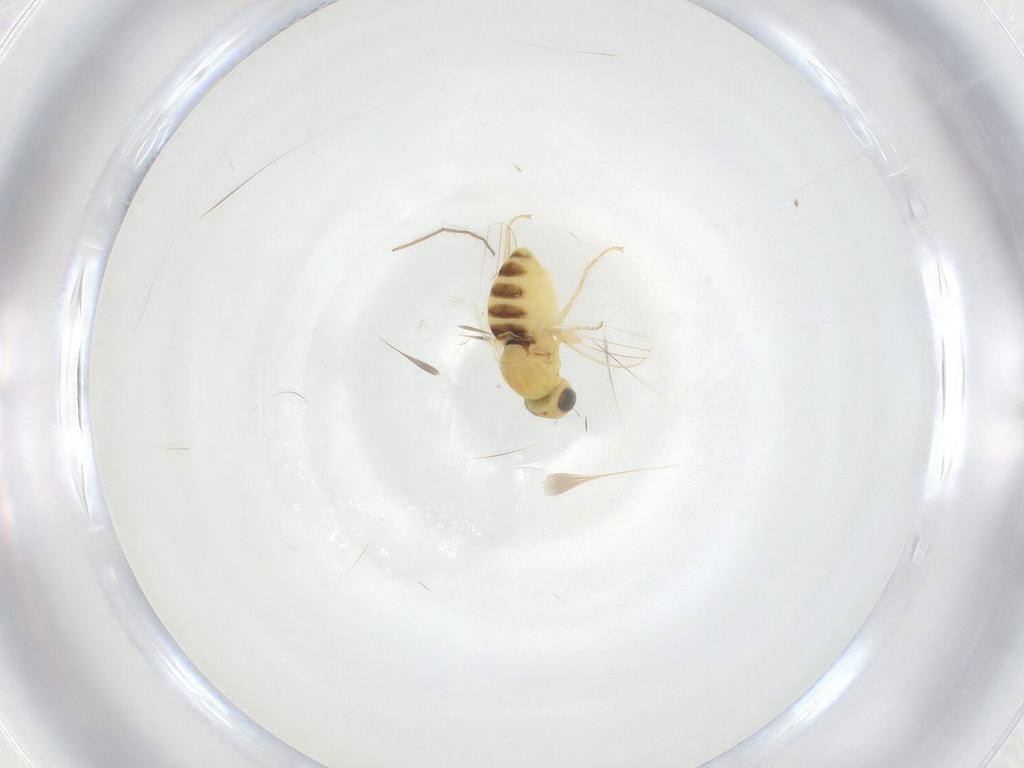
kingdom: Animalia
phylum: Arthropoda
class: Insecta
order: Diptera
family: Chyromyidae
